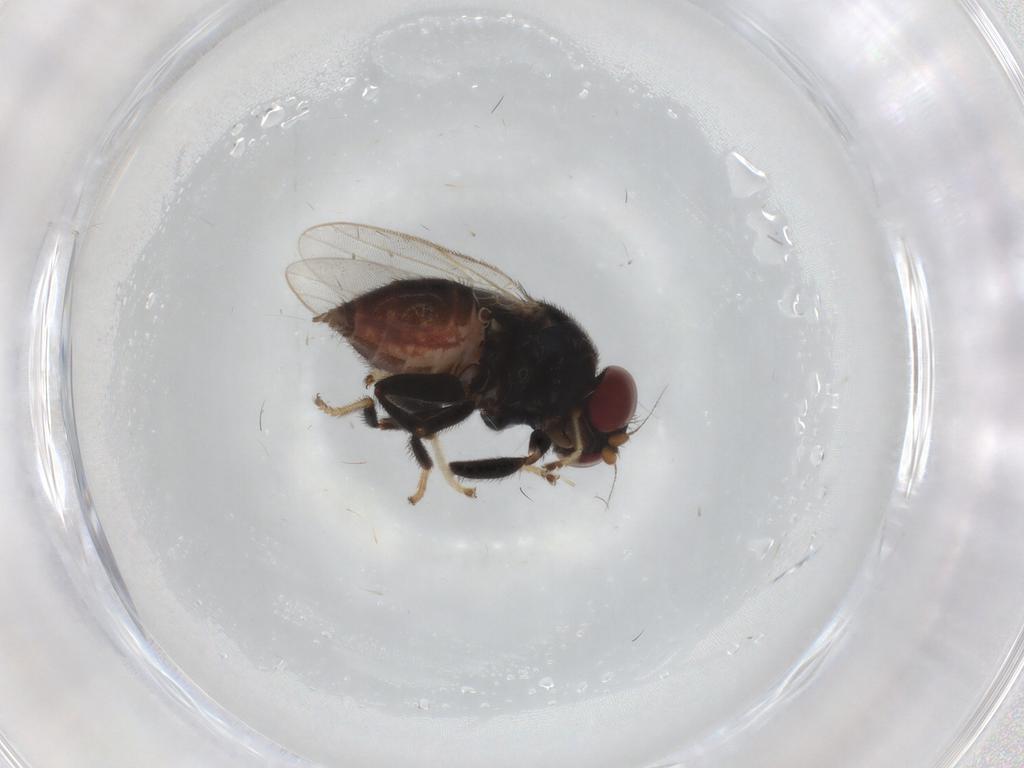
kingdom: Animalia
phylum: Arthropoda
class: Insecta
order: Diptera
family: Chloropidae
